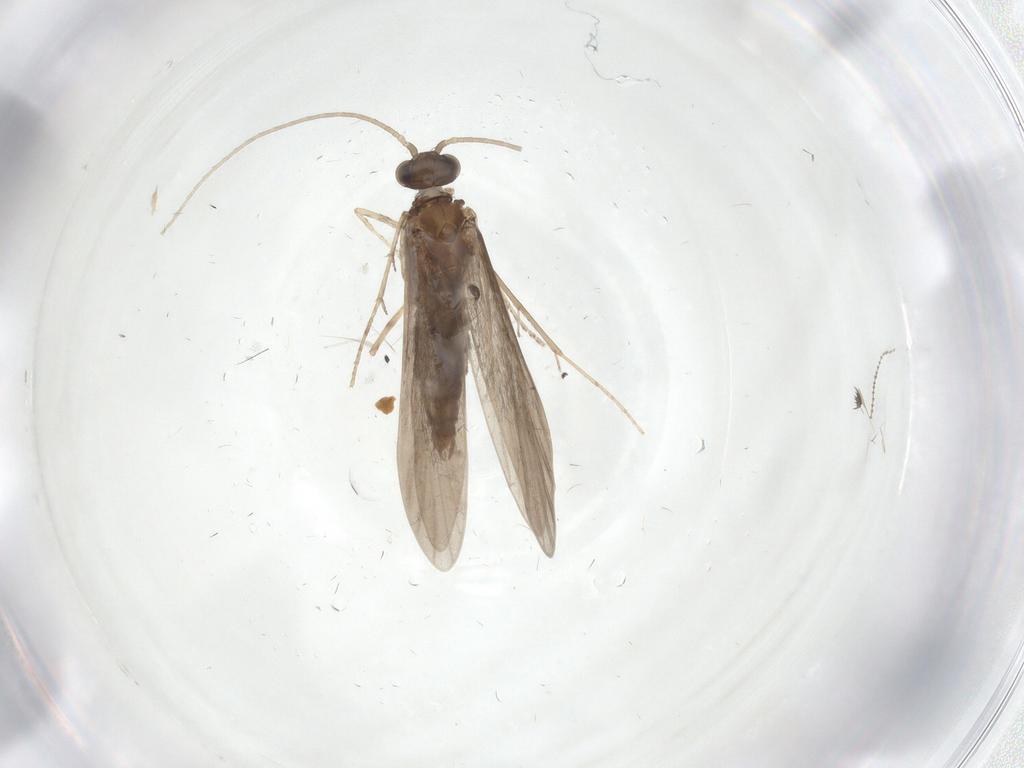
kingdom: Animalia
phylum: Arthropoda
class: Insecta
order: Trichoptera
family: Xiphocentronidae
